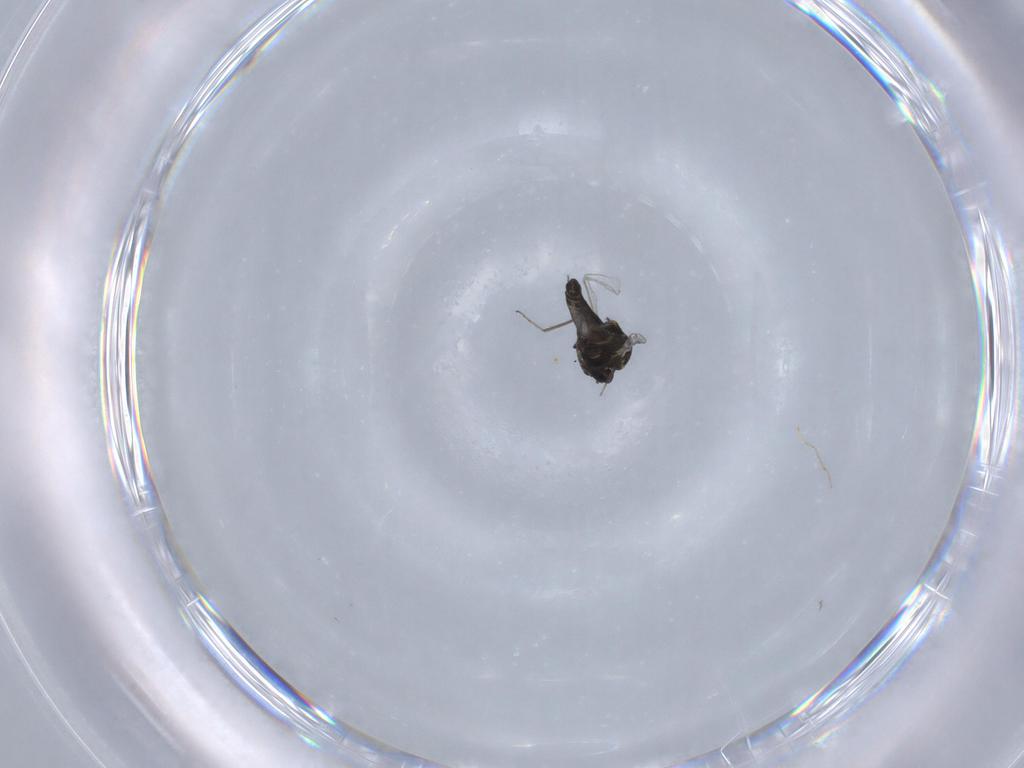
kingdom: Animalia
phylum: Arthropoda
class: Insecta
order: Diptera
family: Ceratopogonidae
